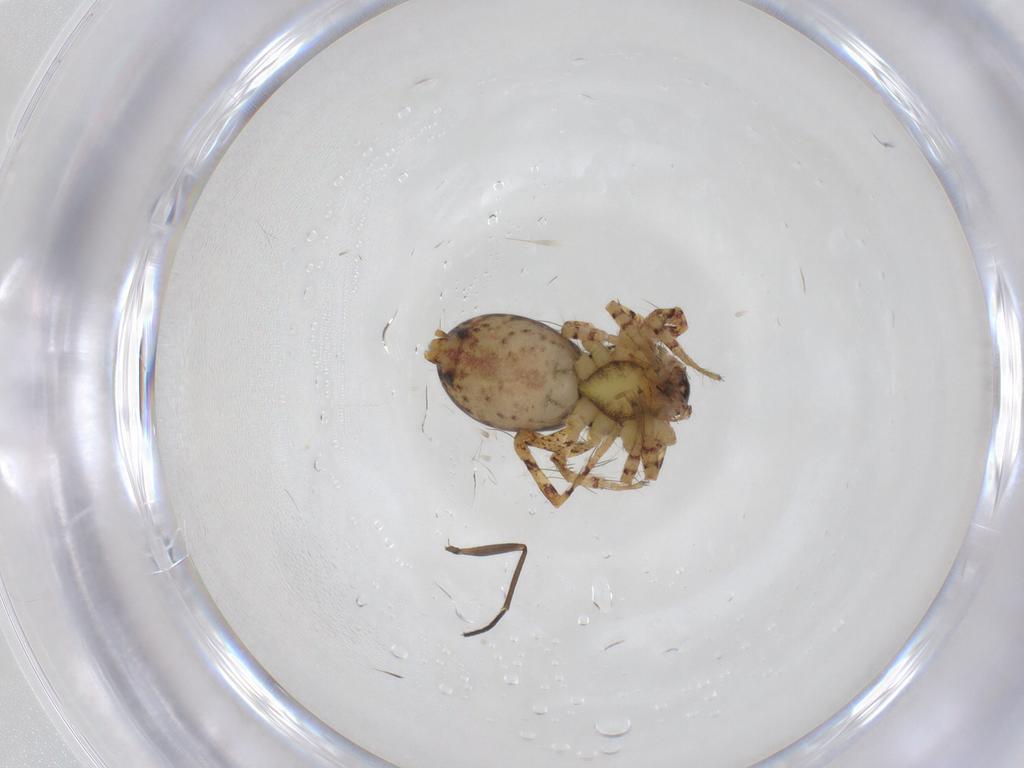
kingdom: Animalia
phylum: Arthropoda
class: Arachnida
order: Araneae
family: Anyphaenidae
